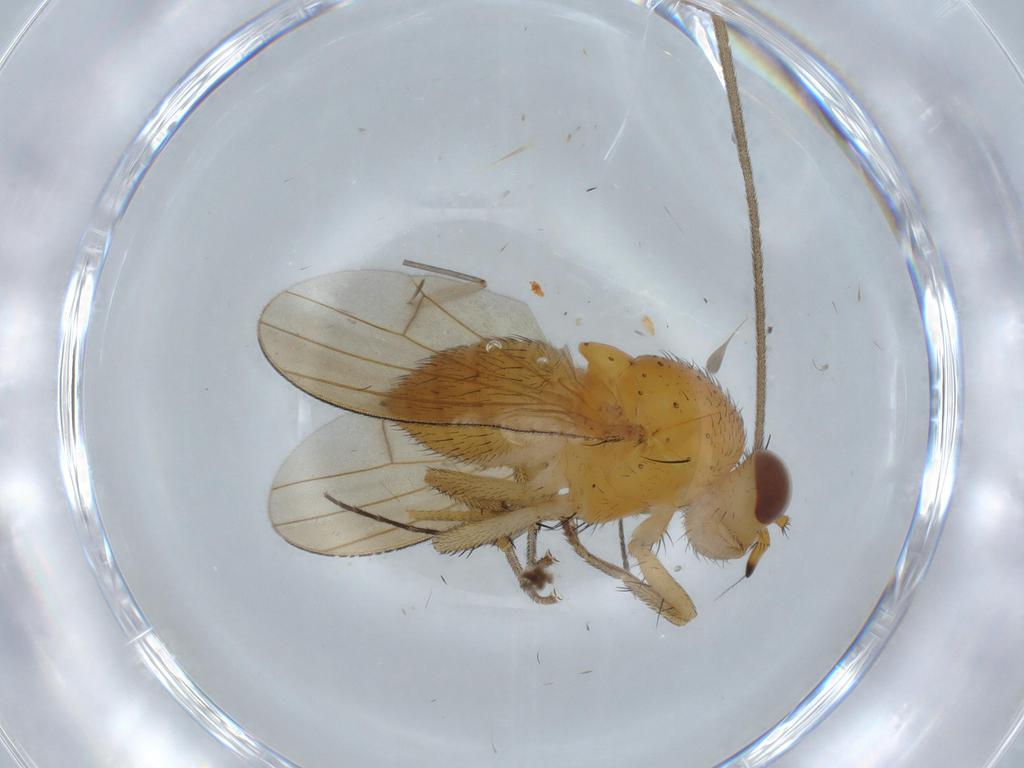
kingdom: Animalia
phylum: Arthropoda
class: Insecta
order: Diptera
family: Lauxaniidae
